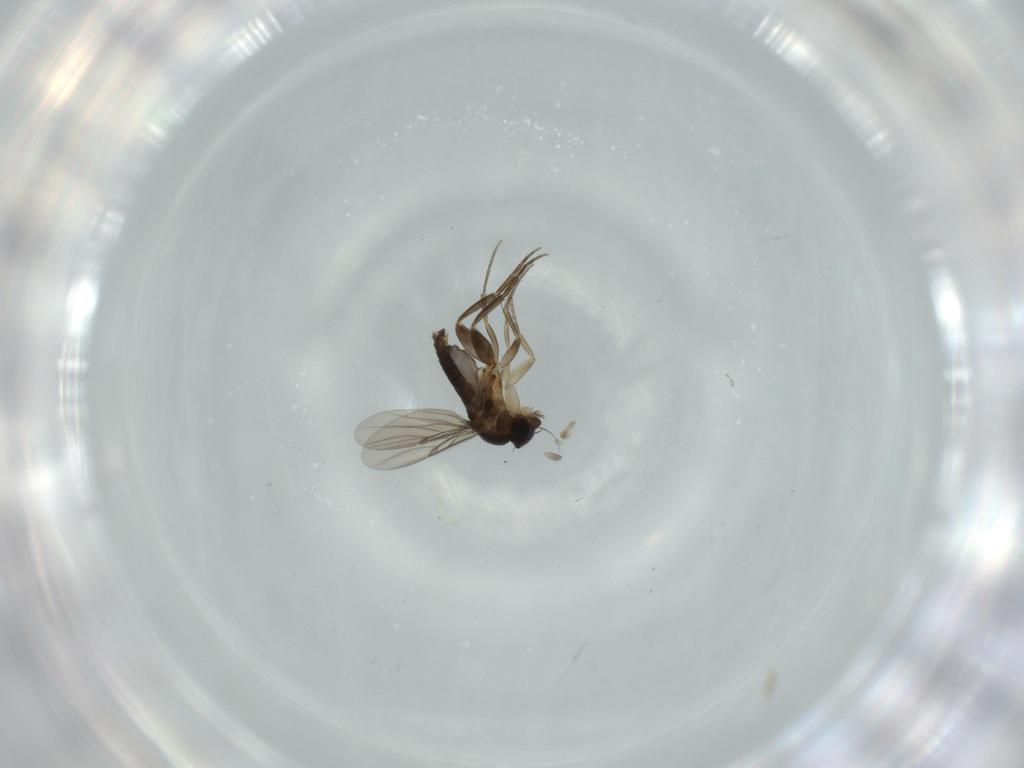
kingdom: Animalia
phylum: Arthropoda
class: Insecta
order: Diptera
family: Phoridae
